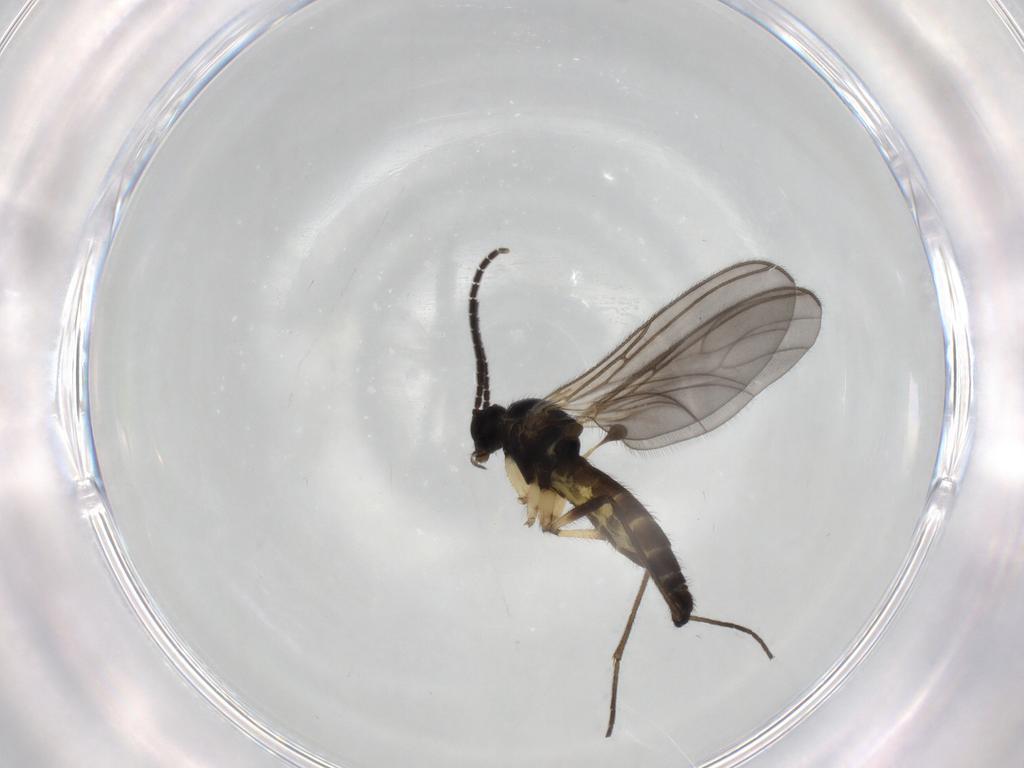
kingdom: Animalia
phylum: Arthropoda
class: Insecta
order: Diptera
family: Sciaridae
